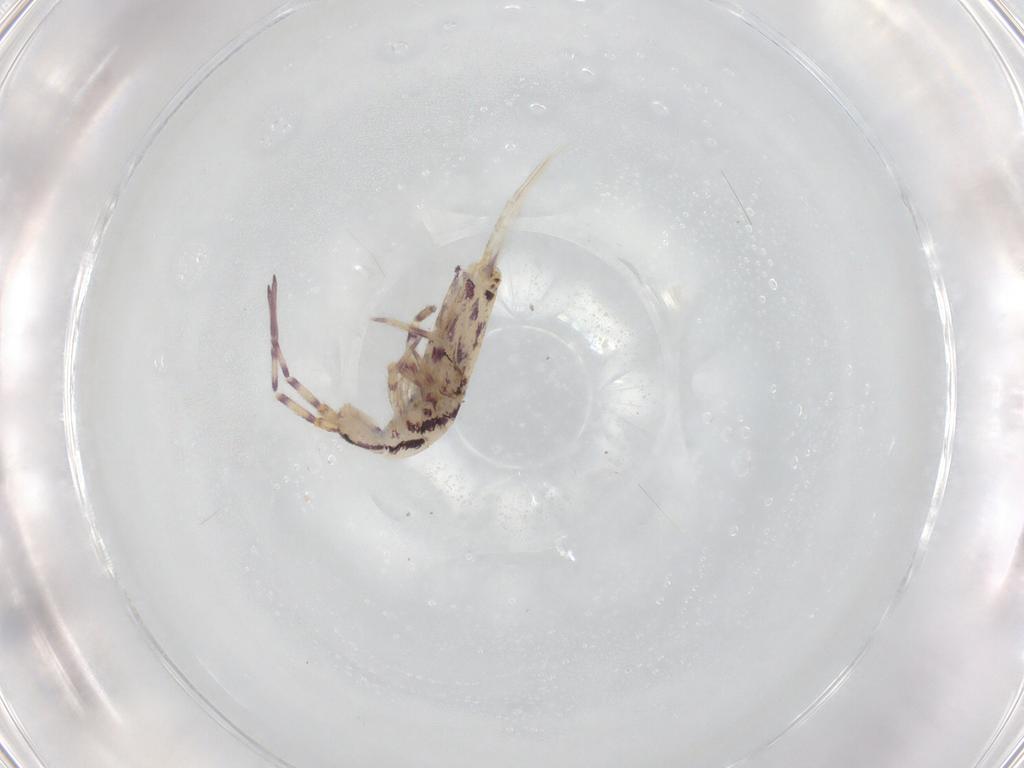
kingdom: Animalia
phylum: Arthropoda
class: Collembola
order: Entomobryomorpha
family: Entomobryidae
